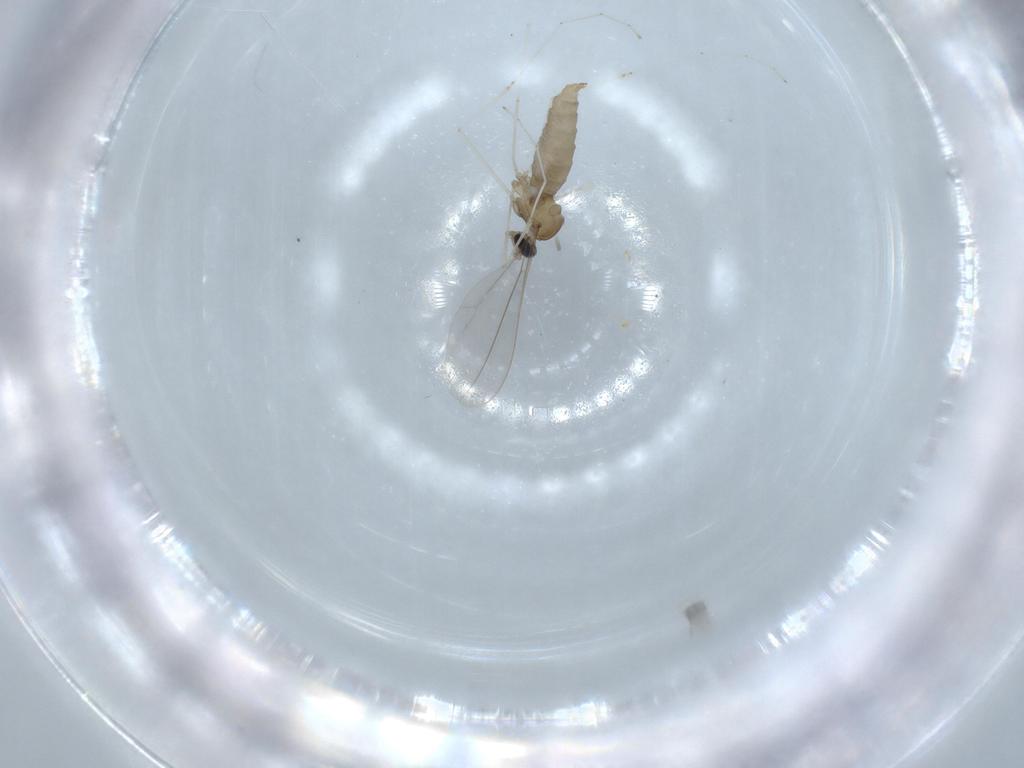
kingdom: Animalia
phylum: Arthropoda
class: Insecta
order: Diptera
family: Cecidomyiidae
